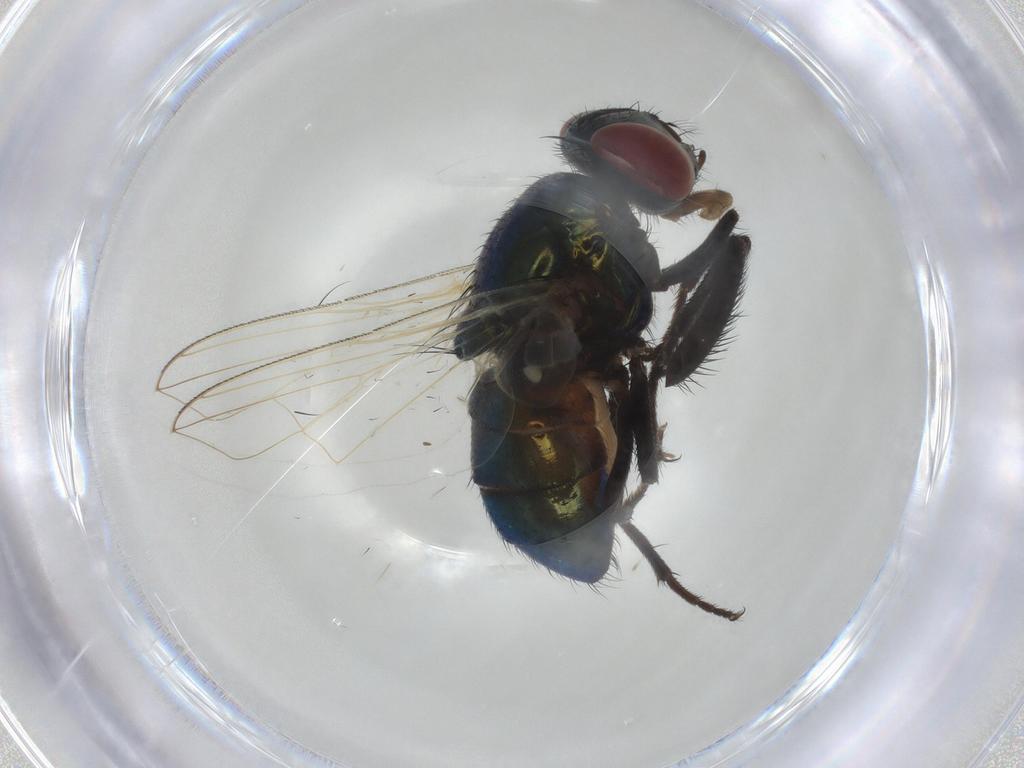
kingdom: Animalia
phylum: Arthropoda
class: Insecta
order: Diptera
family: Muscidae
